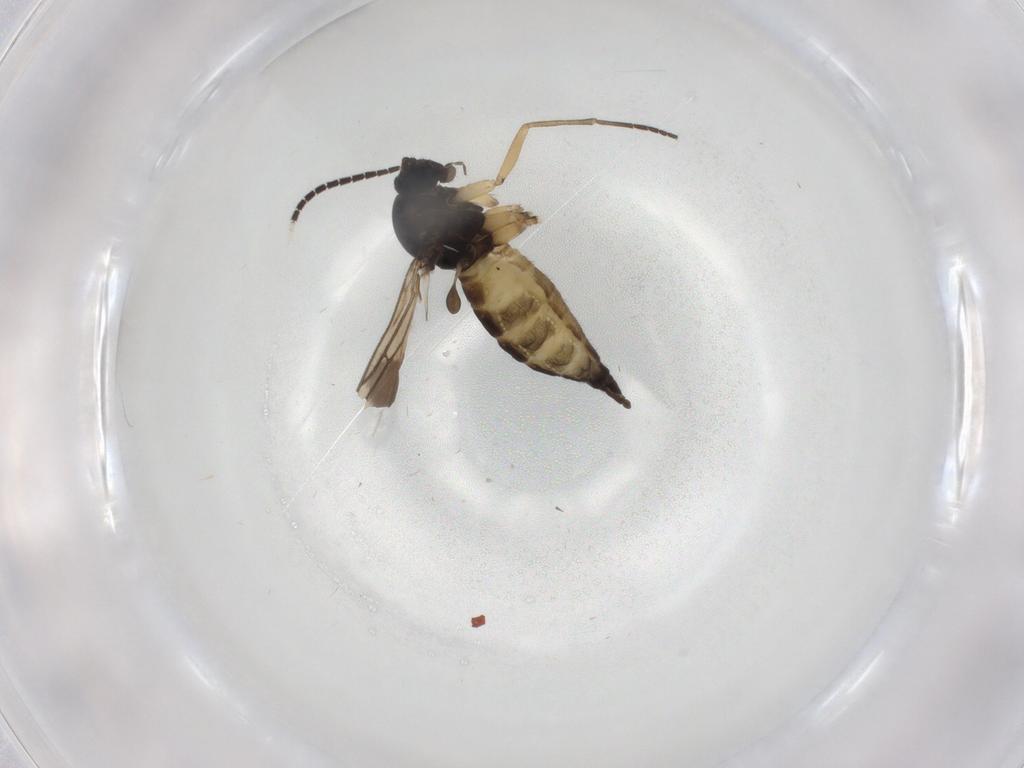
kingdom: Animalia
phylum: Arthropoda
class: Insecta
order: Diptera
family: Sciaridae
